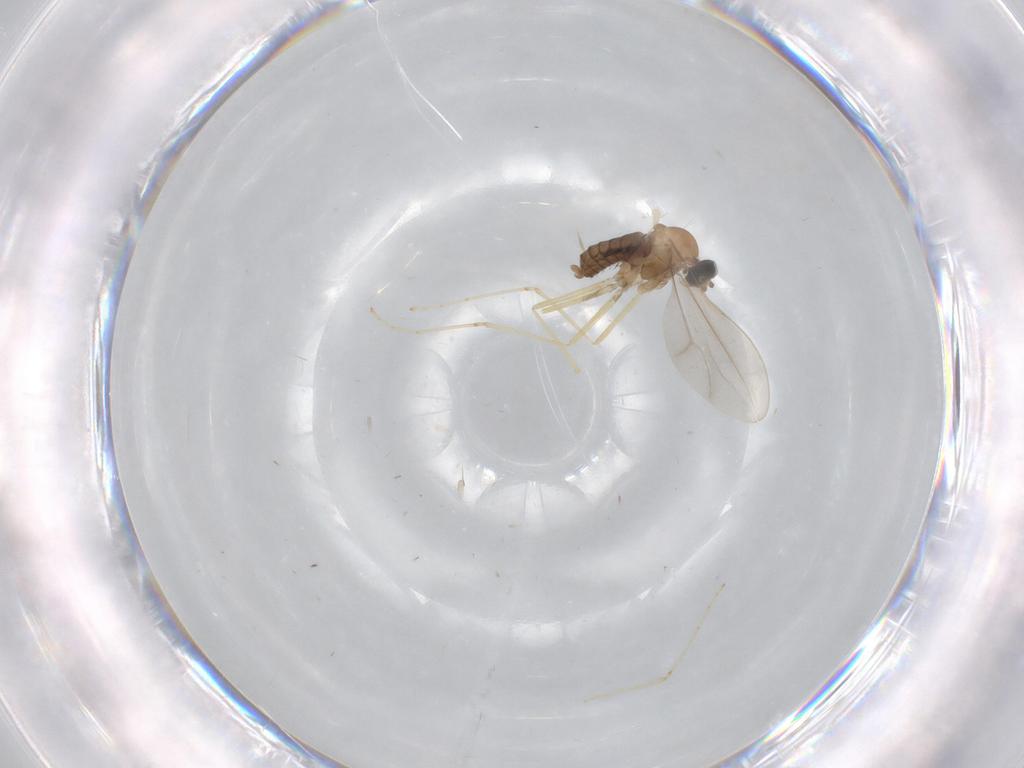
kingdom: Animalia
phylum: Arthropoda
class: Insecta
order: Diptera
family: Cecidomyiidae
